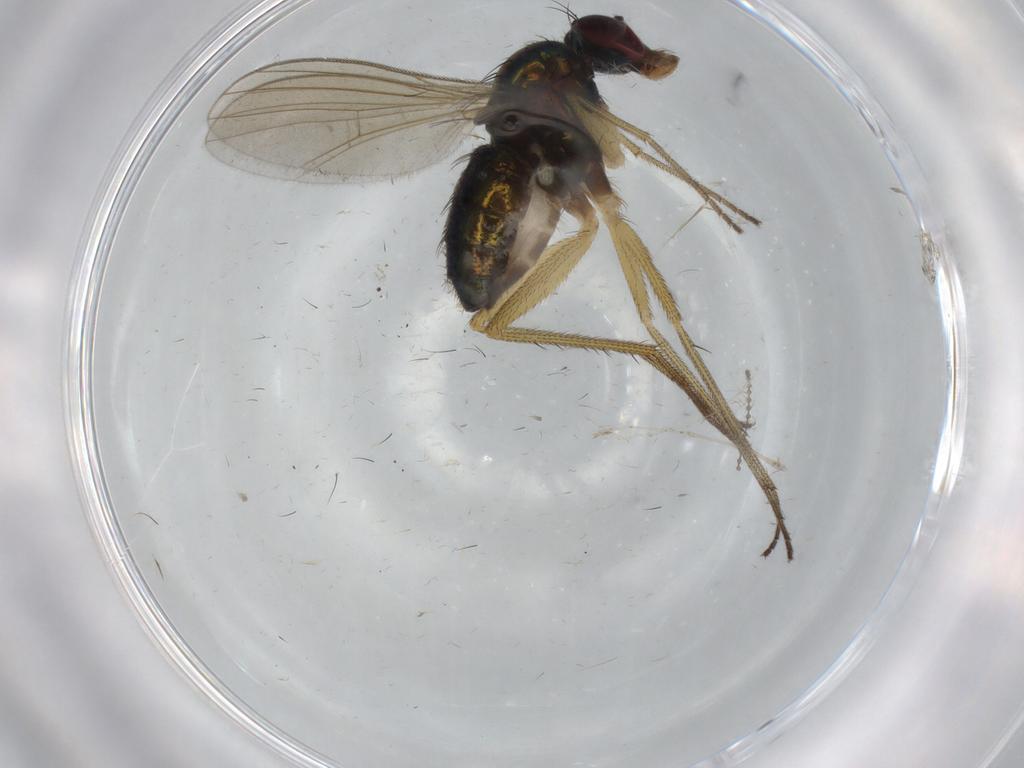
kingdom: Animalia
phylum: Arthropoda
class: Insecta
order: Diptera
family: Dolichopodidae
